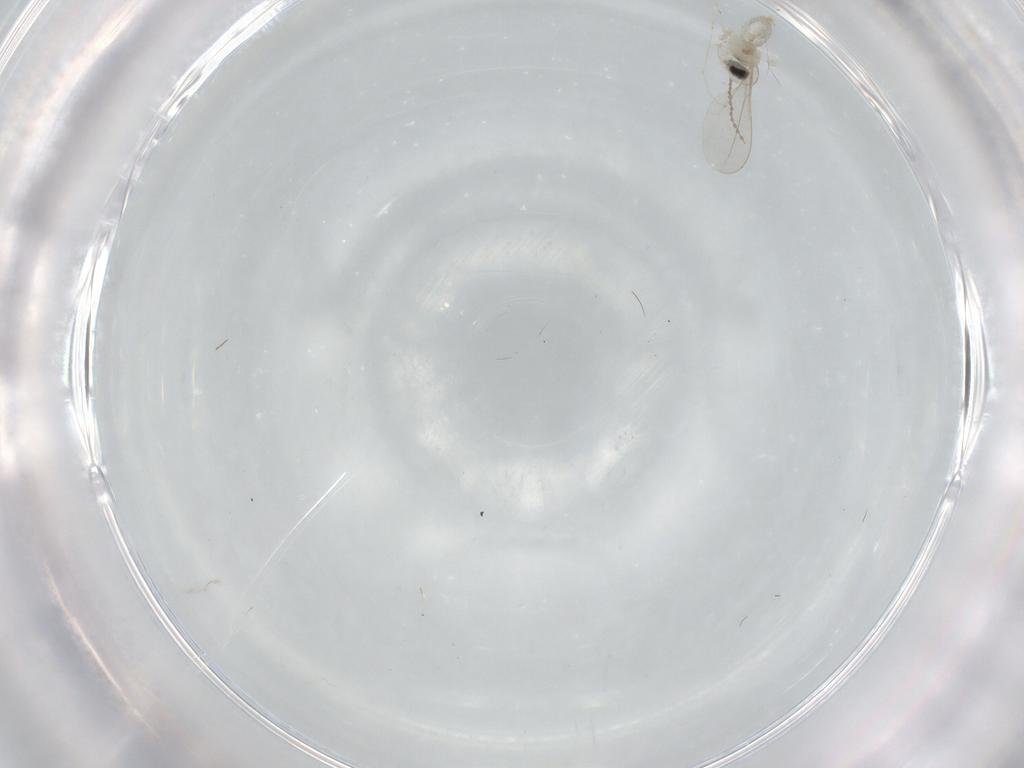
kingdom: Animalia
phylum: Arthropoda
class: Insecta
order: Diptera
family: Cecidomyiidae
